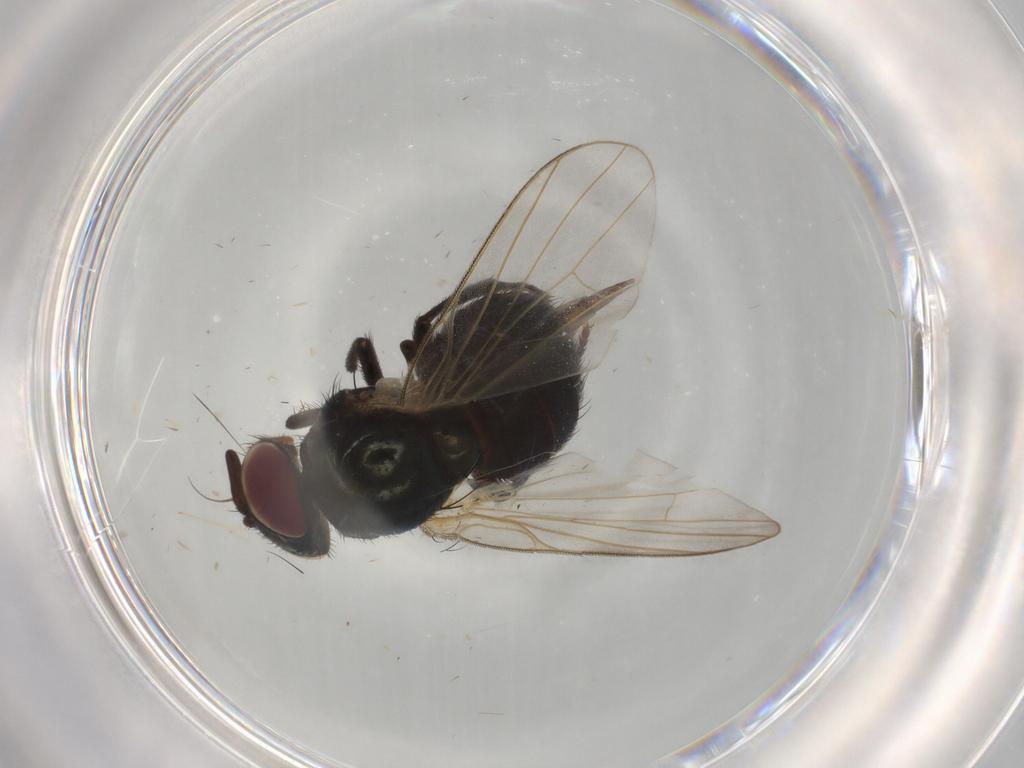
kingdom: Animalia
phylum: Arthropoda
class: Insecta
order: Diptera
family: Lonchaeidae
